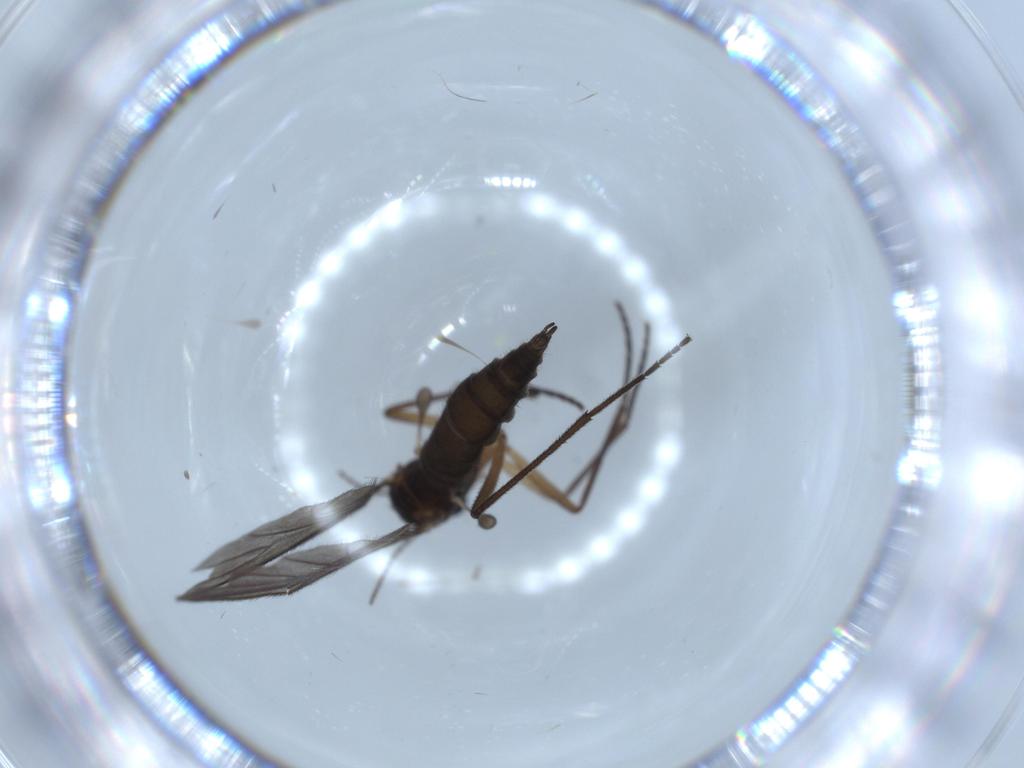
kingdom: Animalia
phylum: Arthropoda
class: Insecta
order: Diptera
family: Sciaridae
